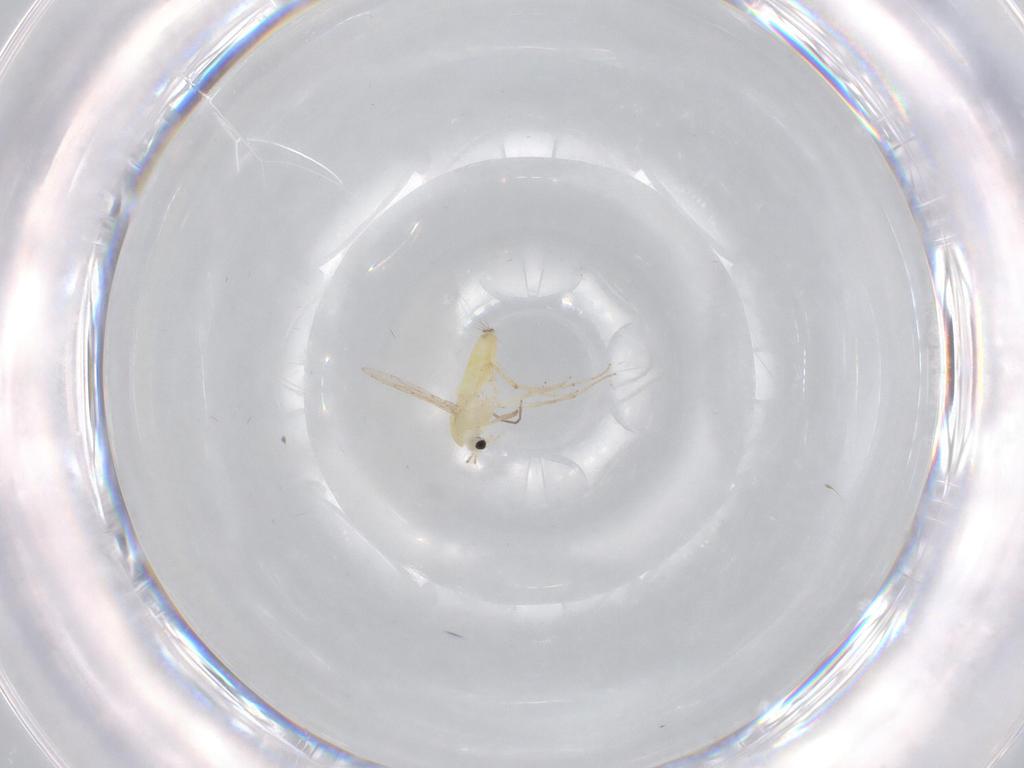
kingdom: Animalia
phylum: Arthropoda
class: Insecta
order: Diptera
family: Chironomidae
